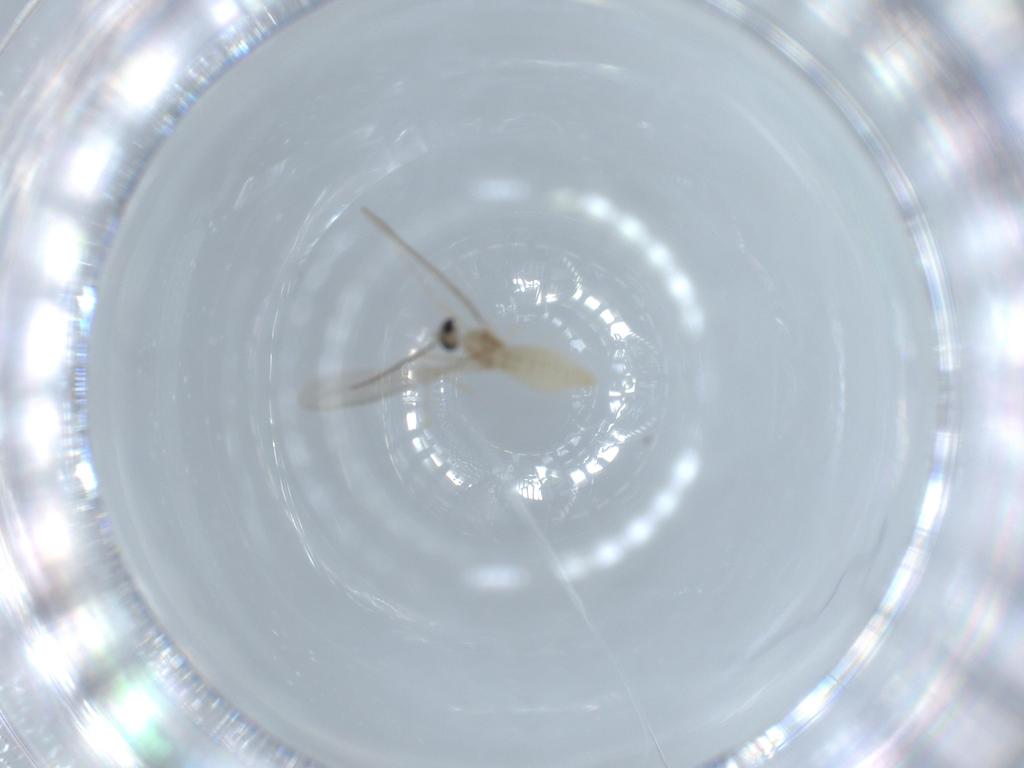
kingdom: Animalia
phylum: Arthropoda
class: Insecta
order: Diptera
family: Cecidomyiidae
